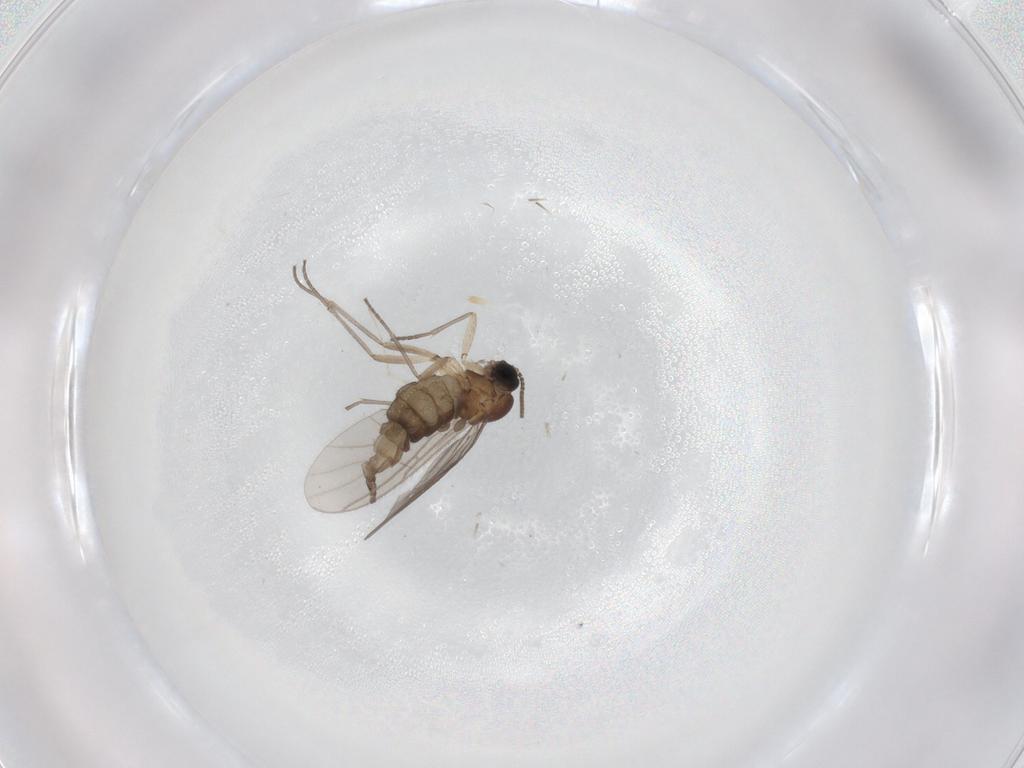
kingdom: Animalia
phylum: Arthropoda
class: Insecta
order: Diptera
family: Sciaridae
